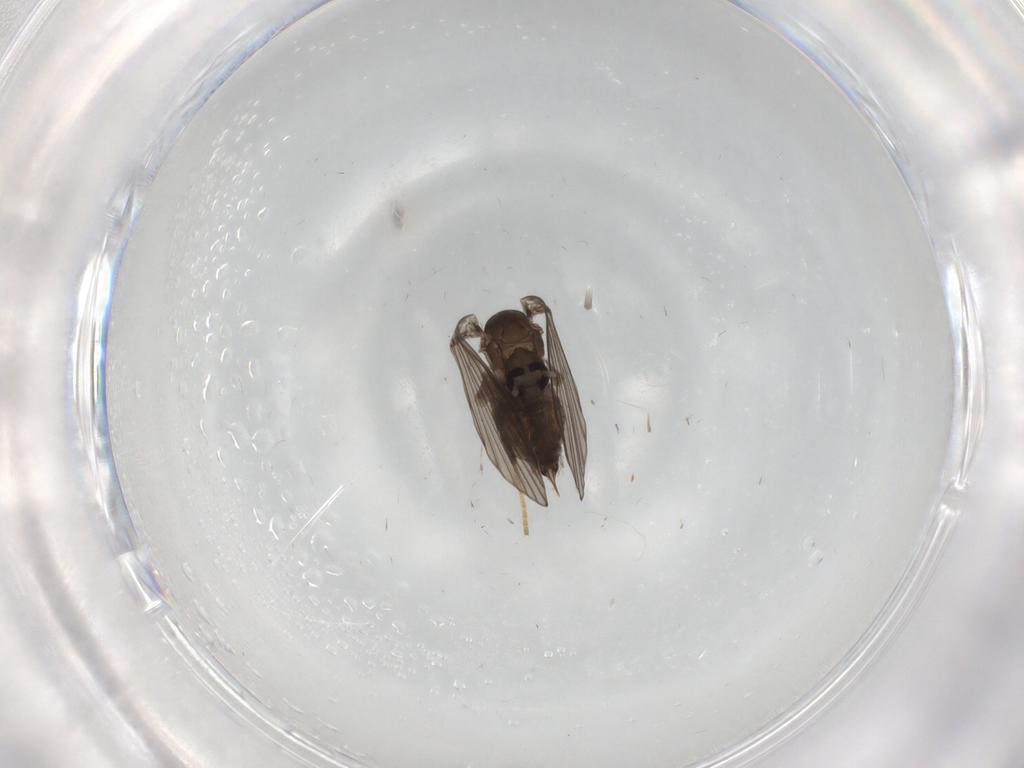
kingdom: Animalia
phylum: Arthropoda
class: Insecta
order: Diptera
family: Psychodidae
